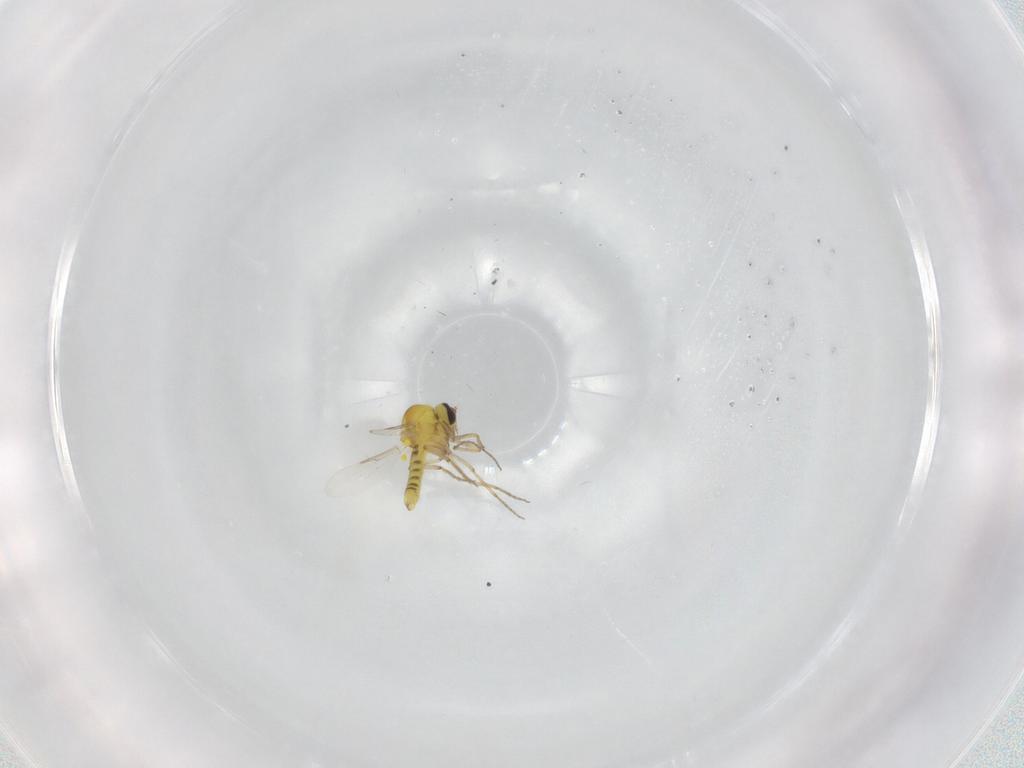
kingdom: Animalia
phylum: Arthropoda
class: Insecta
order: Diptera
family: Ceratopogonidae
